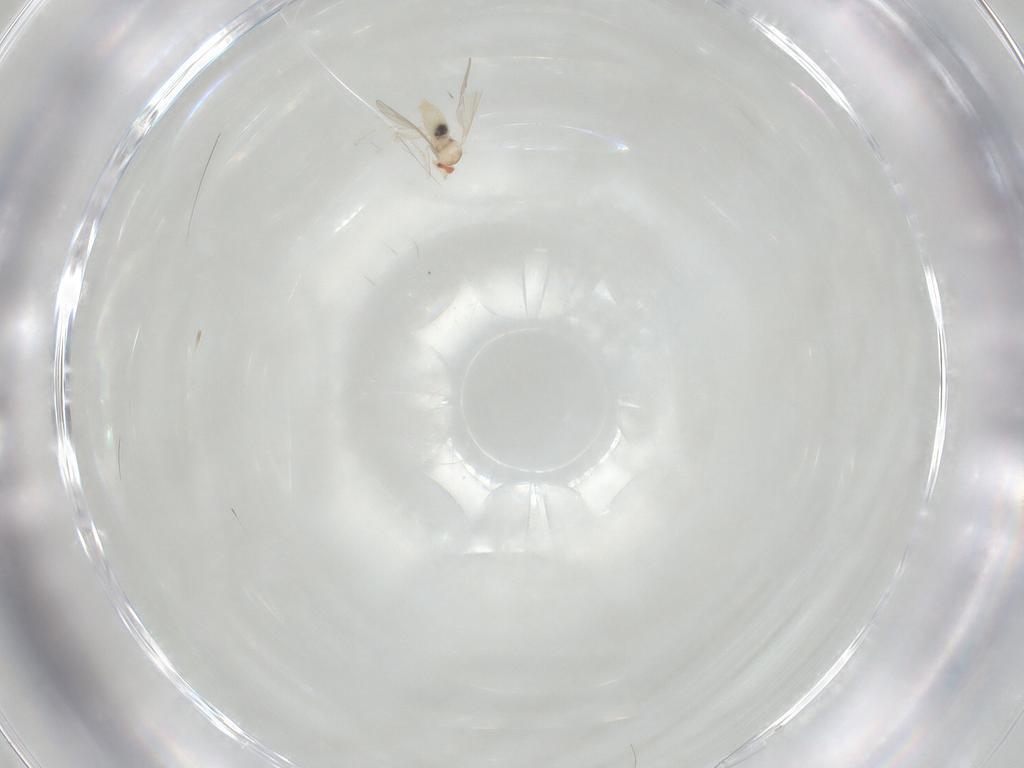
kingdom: Animalia
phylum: Arthropoda
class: Insecta
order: Diptera
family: Cecidomyiidae
